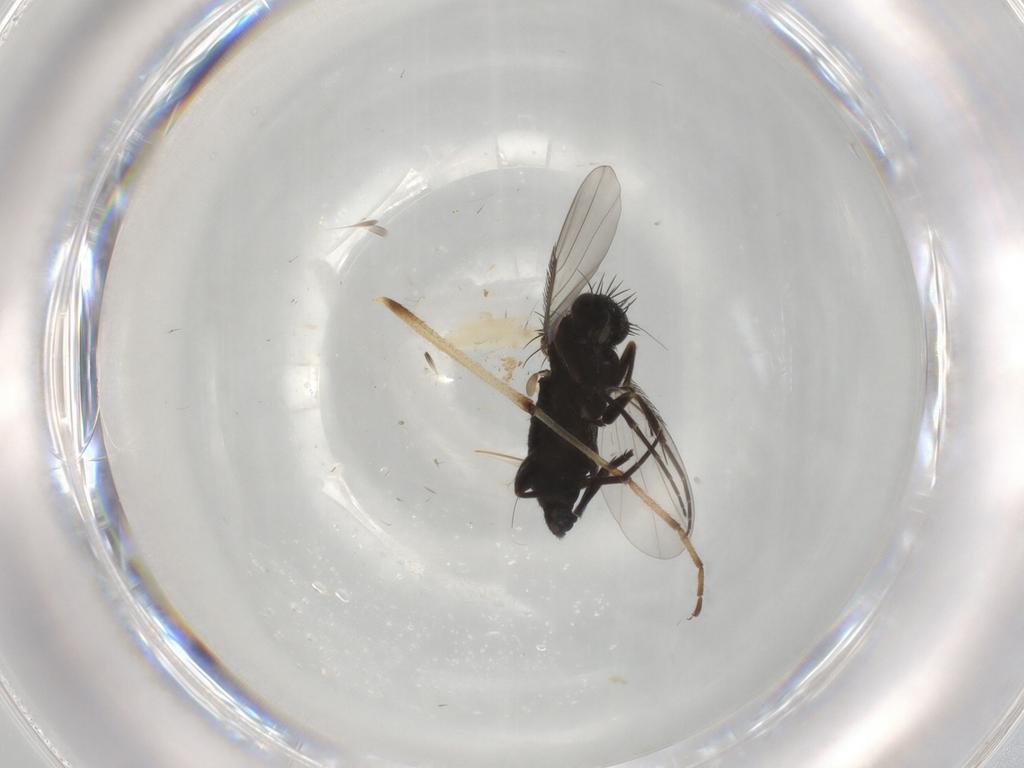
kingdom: Animalia
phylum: Arthropoda
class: Insecta
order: Diptera
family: Phoridae
